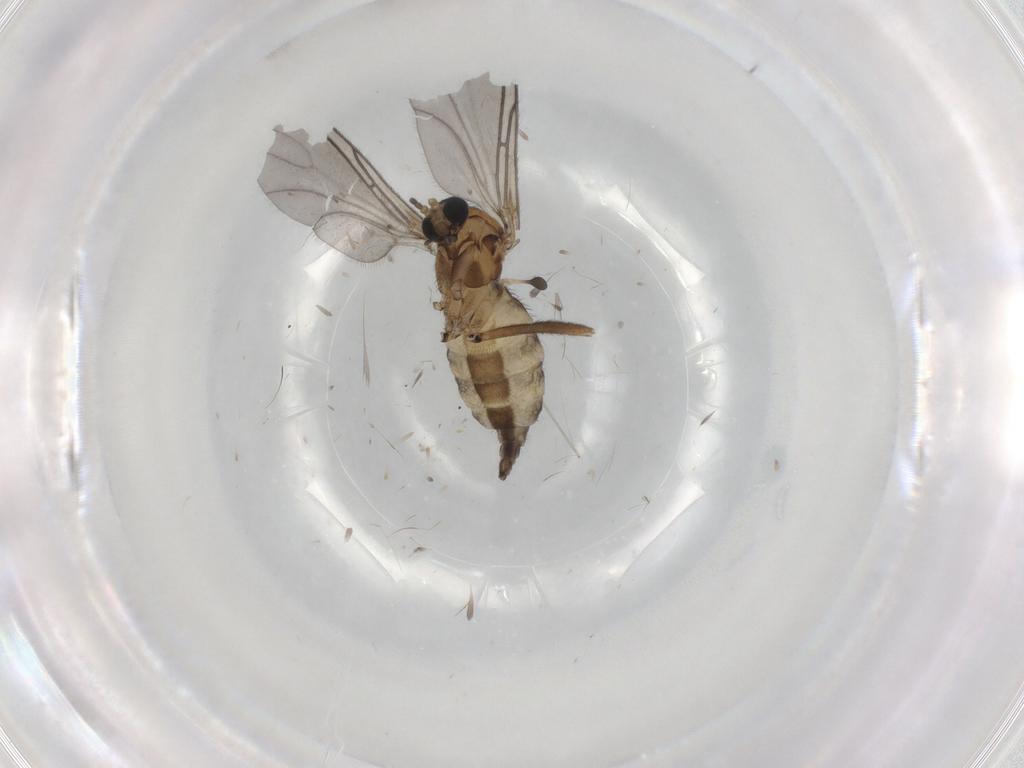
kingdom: Animalia
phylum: Arthropoda
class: Insecta
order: Diptera
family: Sciaridae
